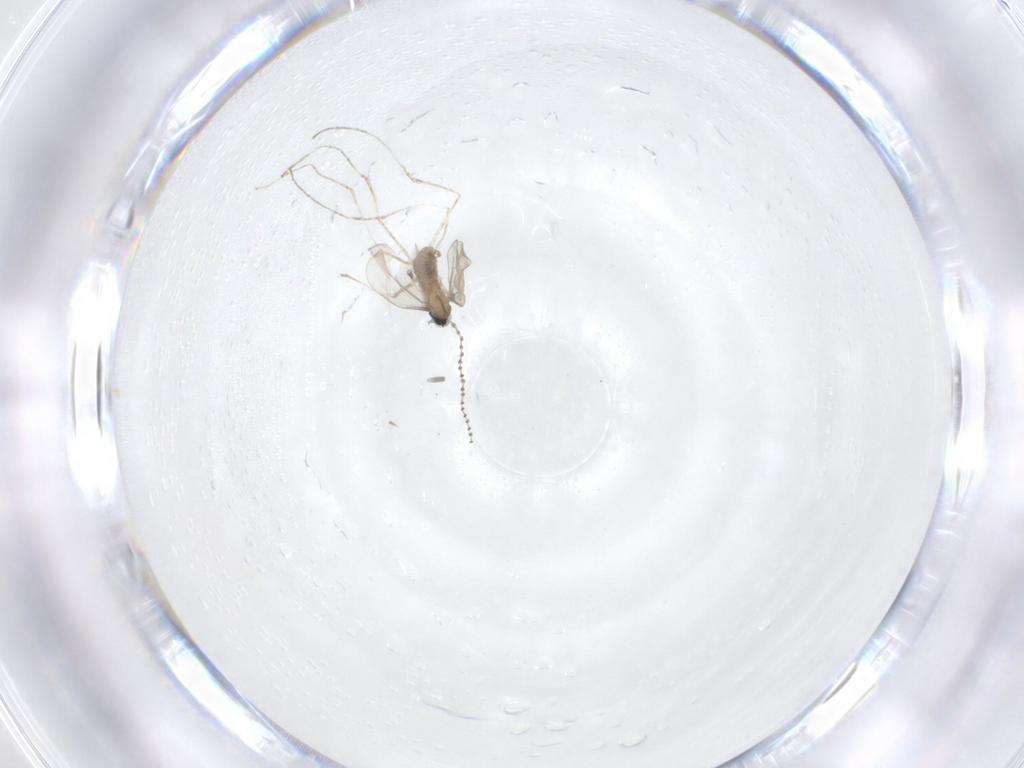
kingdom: Animalia
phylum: Arthropoda
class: Insecta
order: Diptera
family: Cecidomyiidae
